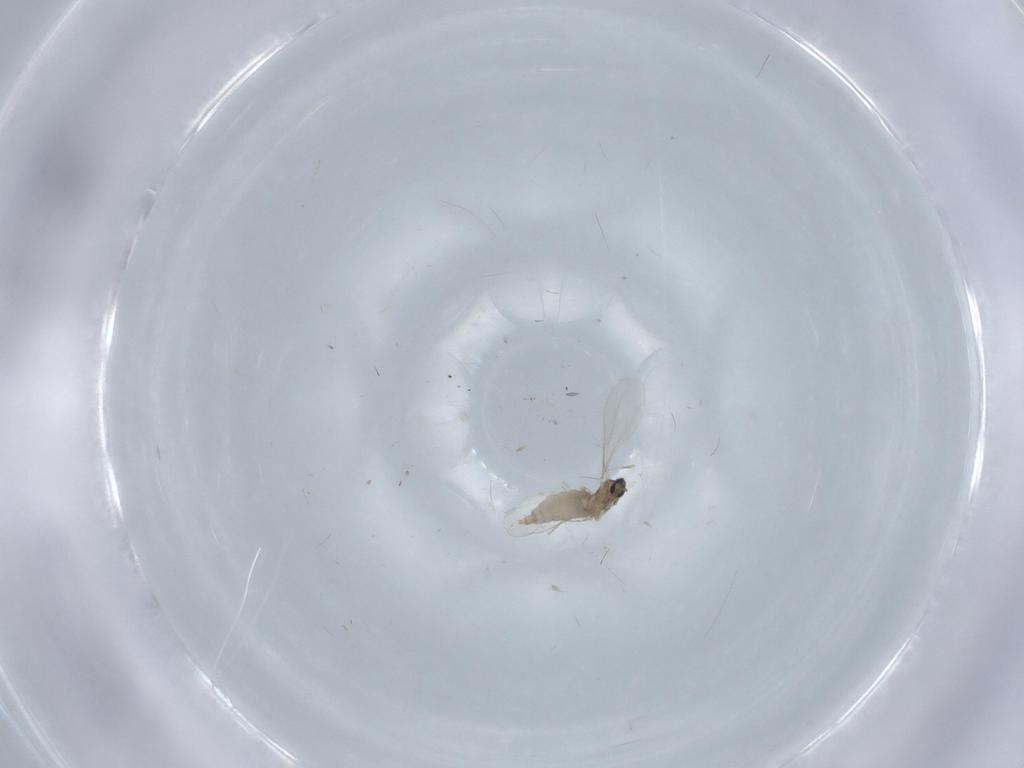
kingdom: Animalia
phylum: Arthropoda
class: Insecta
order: Diptera
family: Cecidomyiidae
